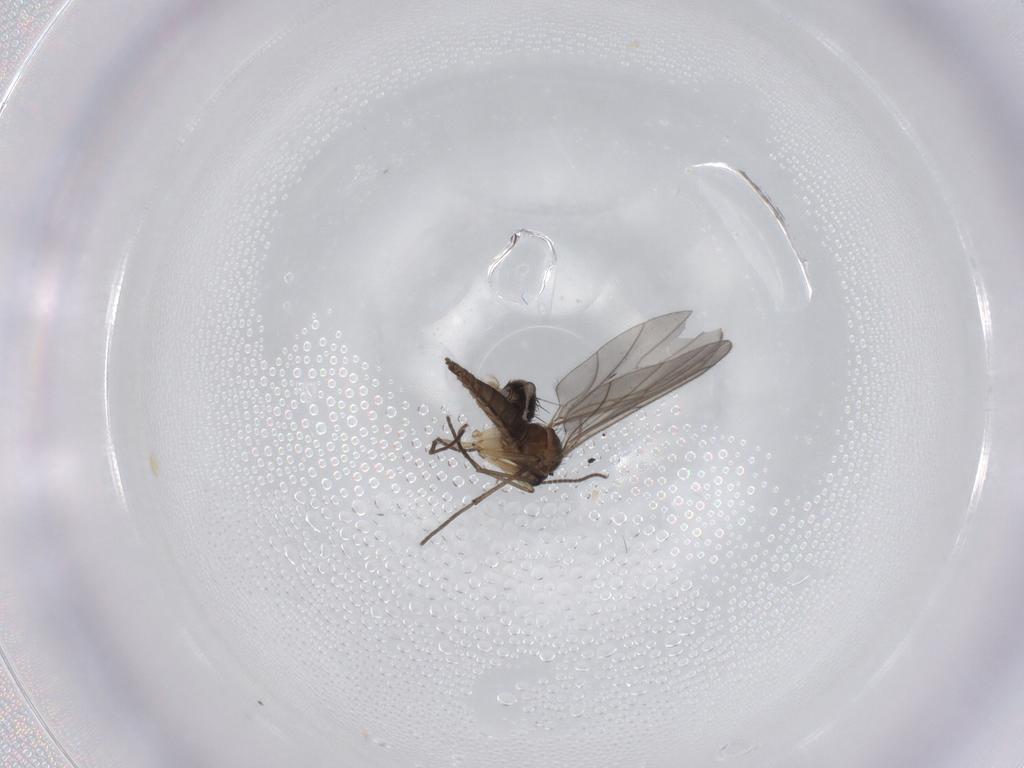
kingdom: Animalia
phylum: Arthropoda
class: Insecta
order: Diptera
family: Sciaridae
